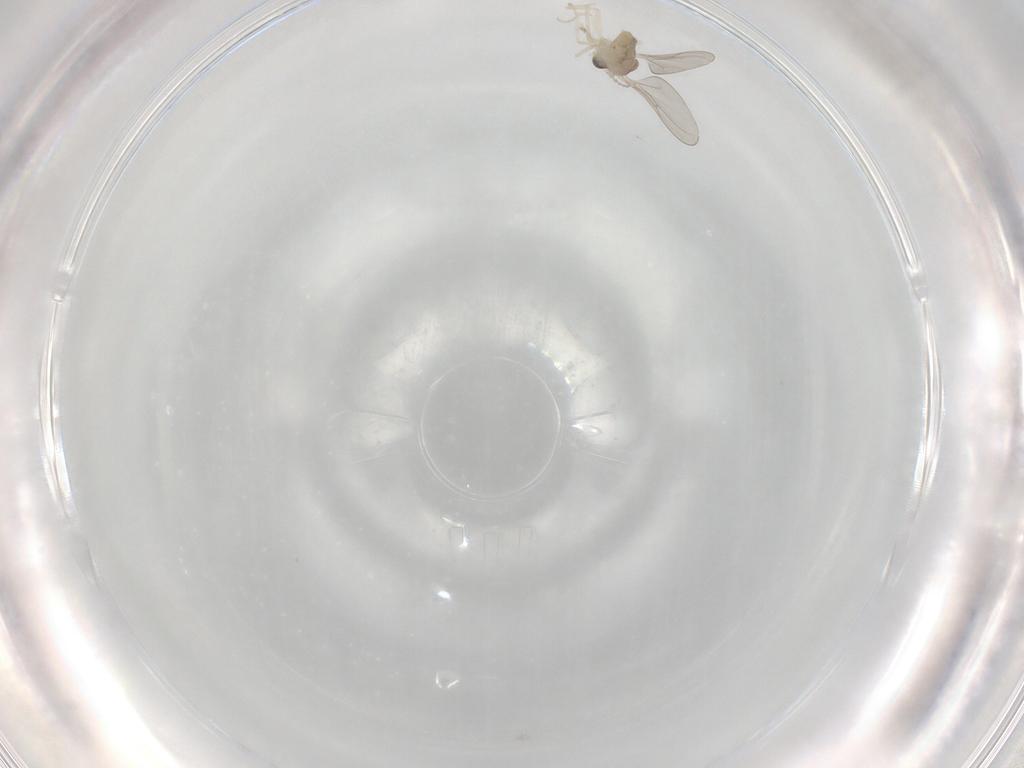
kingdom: Animalia
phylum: Arthropoda
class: Insecta
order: Diptera
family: Cecidomyiidae
